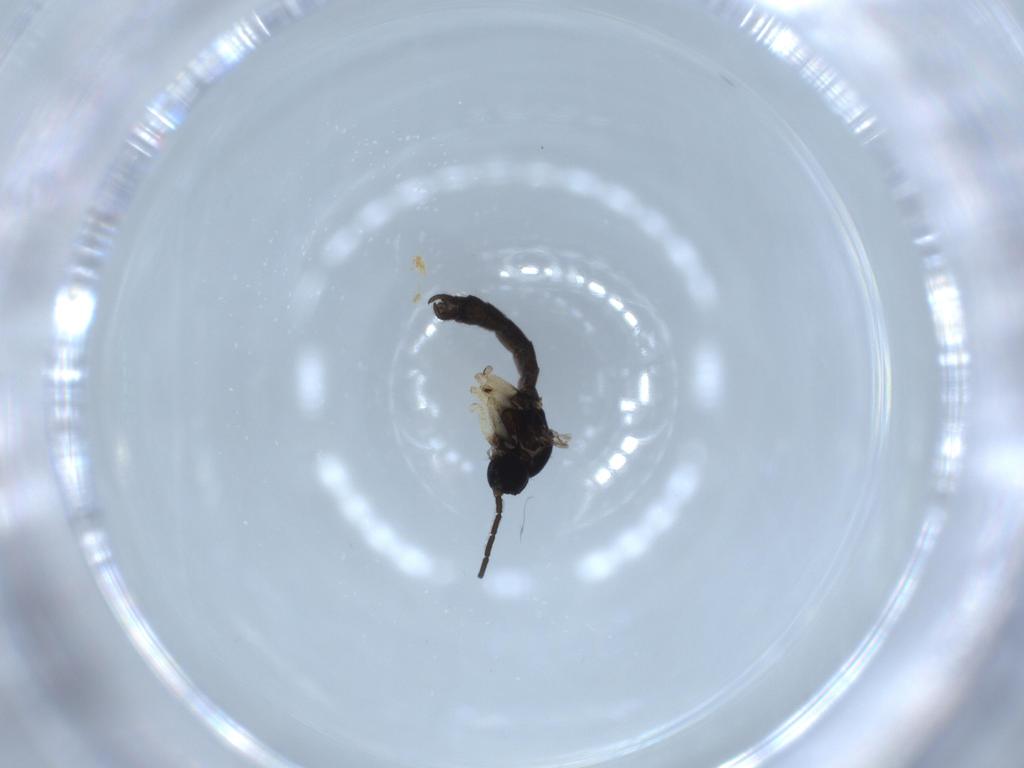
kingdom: Animalia
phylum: Arthropoda
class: Insecta
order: Diptera
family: Sciaridae
